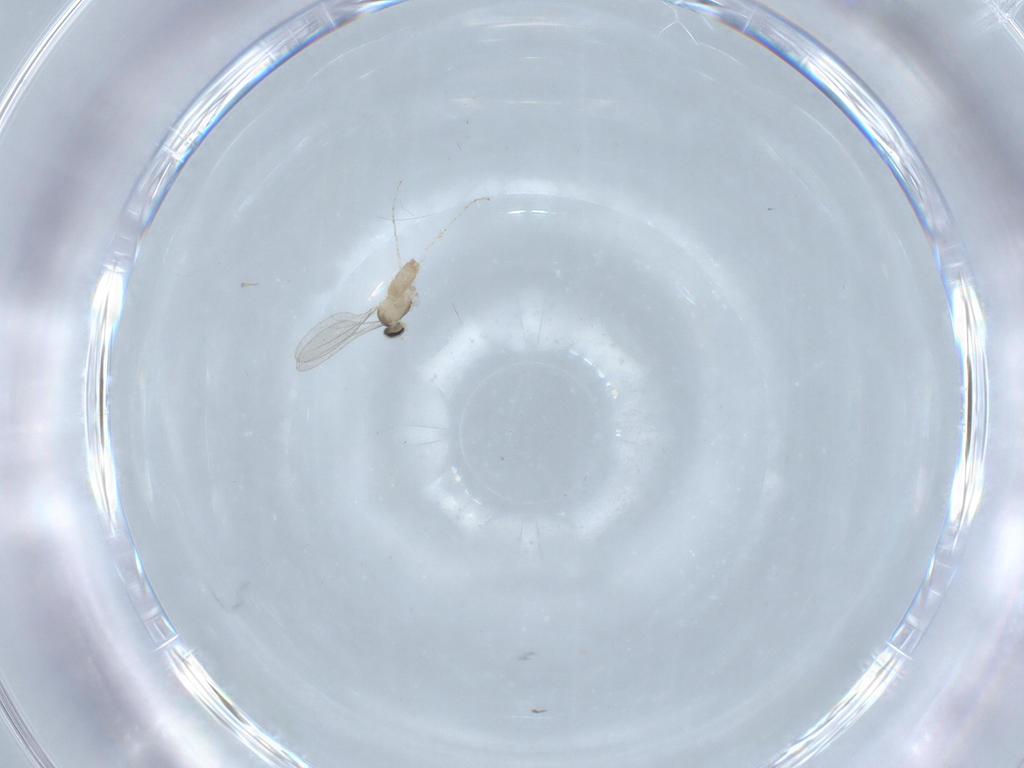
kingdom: Animalia
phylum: Arthropoda
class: Insecta
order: Diptera
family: Cecidomyiidae
